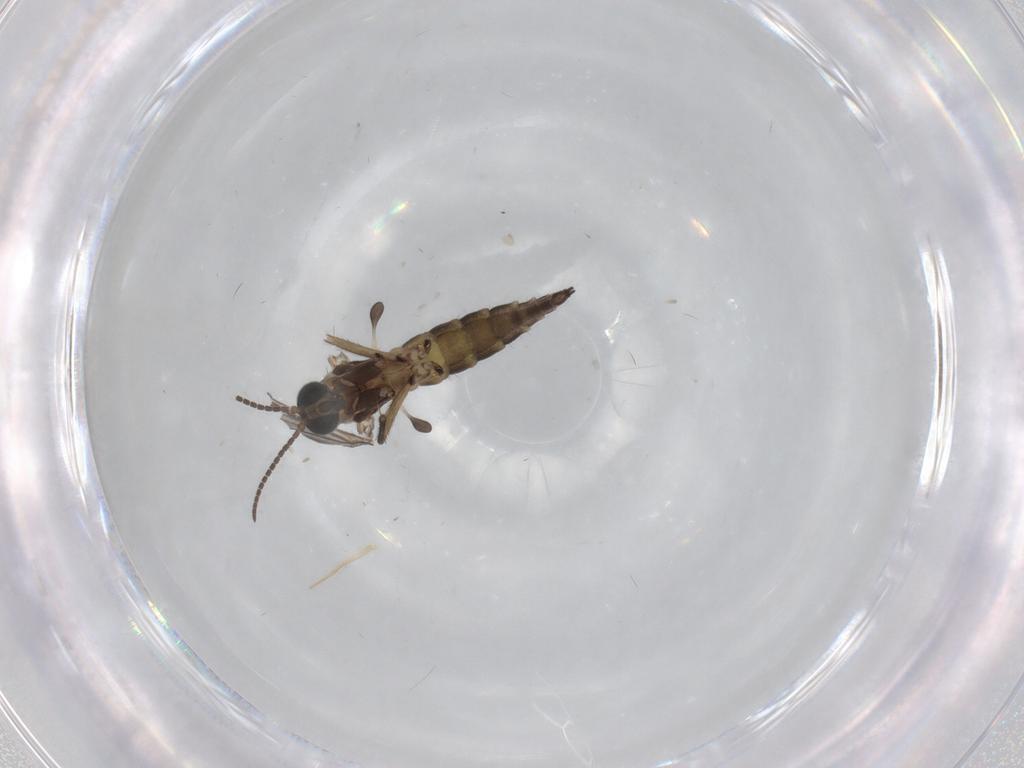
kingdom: Animalia
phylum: Arthropoda
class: Insecta
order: Diptera
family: Sciaridae
